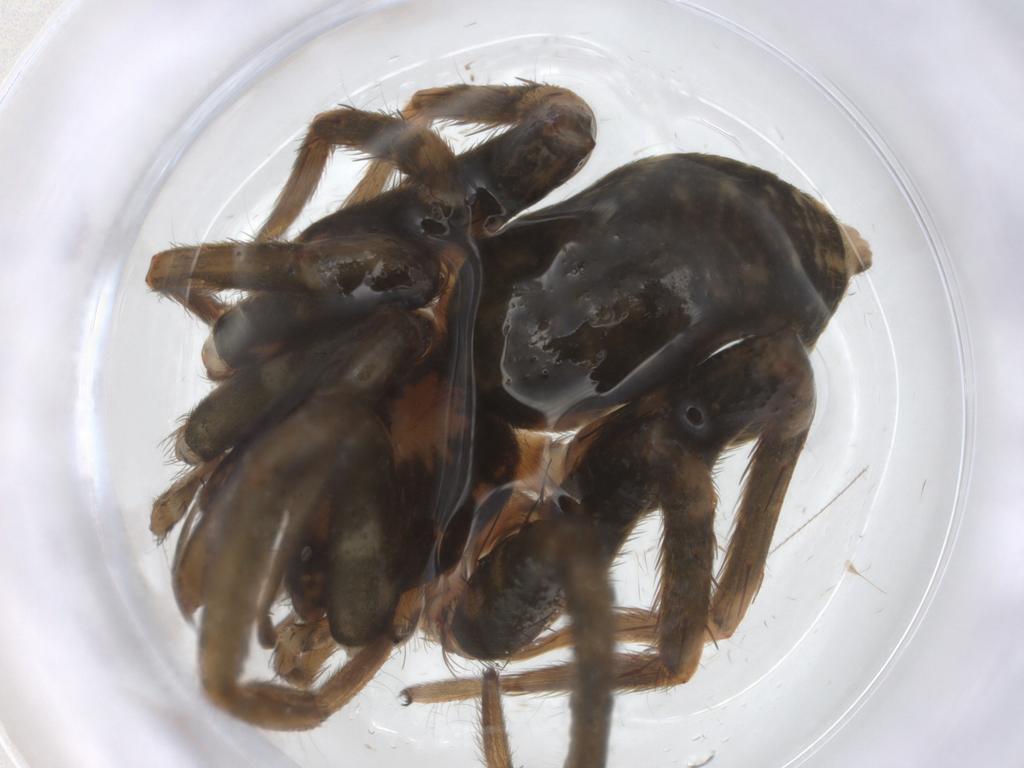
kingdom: Animalia
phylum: Arthropoda
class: Arachnida
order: Araneae
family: Agelenidae
